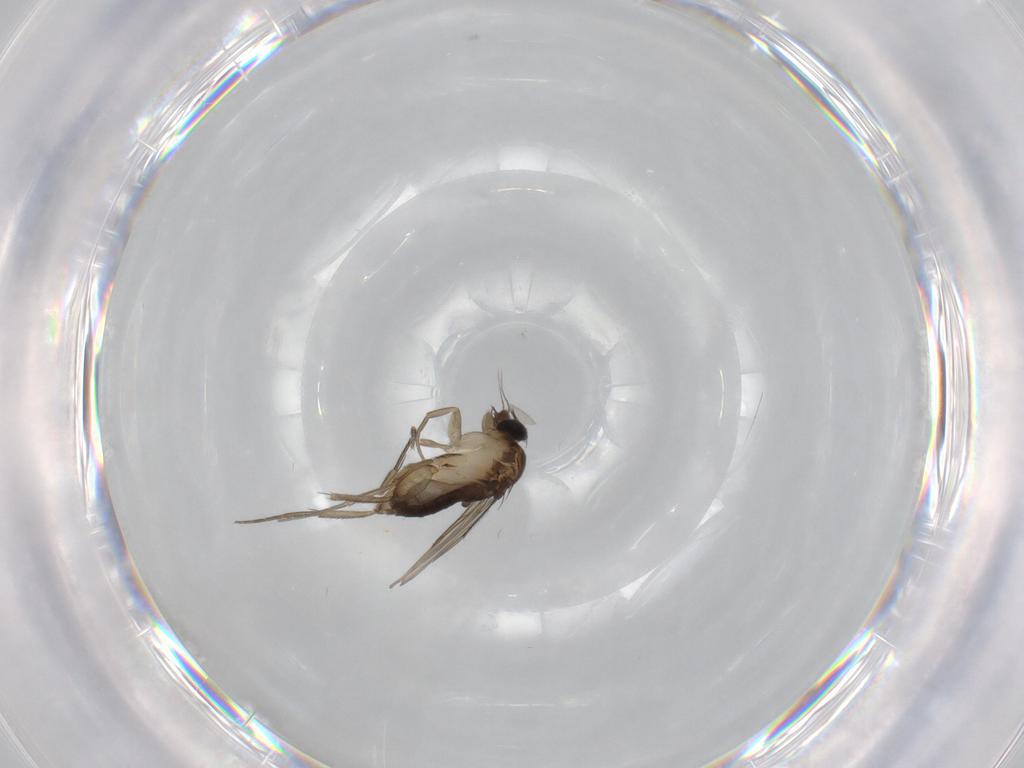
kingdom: Animalia
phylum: Arthropoda
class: Insecta
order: Diptera
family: Phoridae
